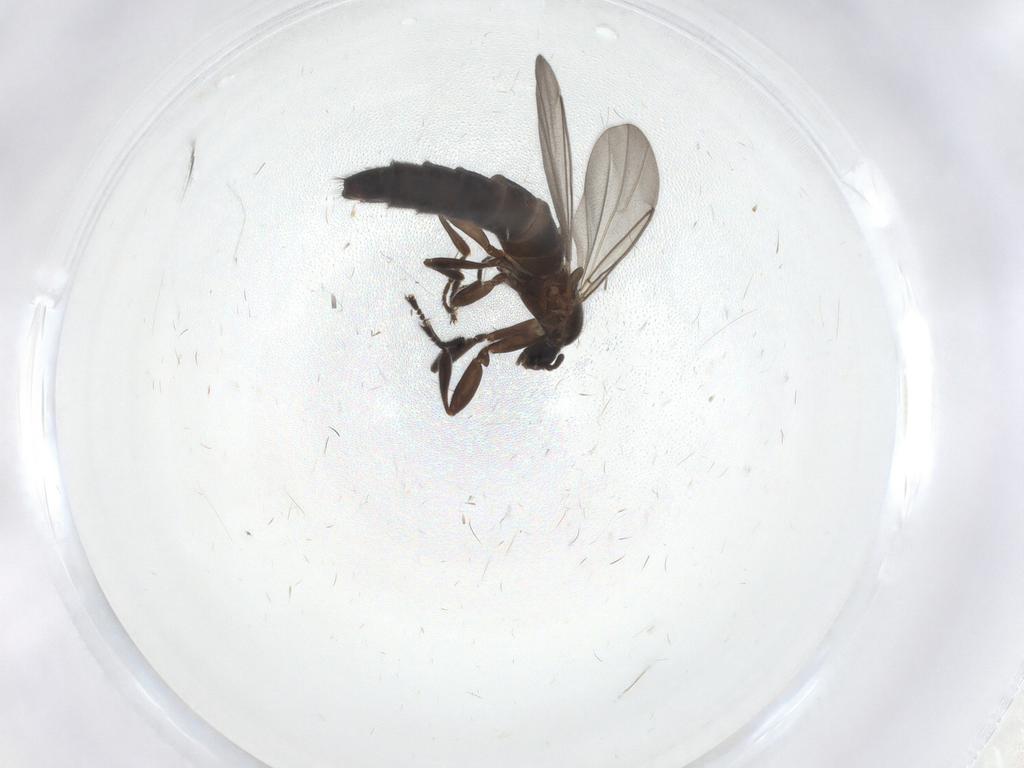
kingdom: Animalia
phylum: Arthropoda
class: Insecta
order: Diptera
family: Scatopsidae
